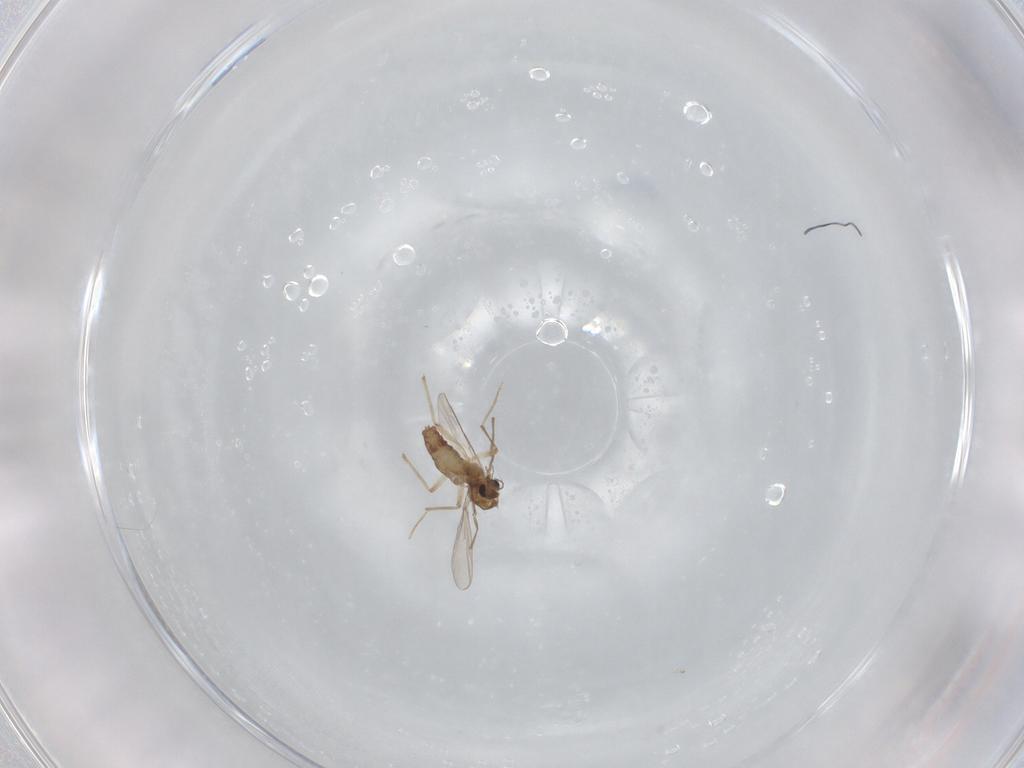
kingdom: Animalia
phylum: Arthropoda
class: Insecta
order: Diptera
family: Chironomidae
